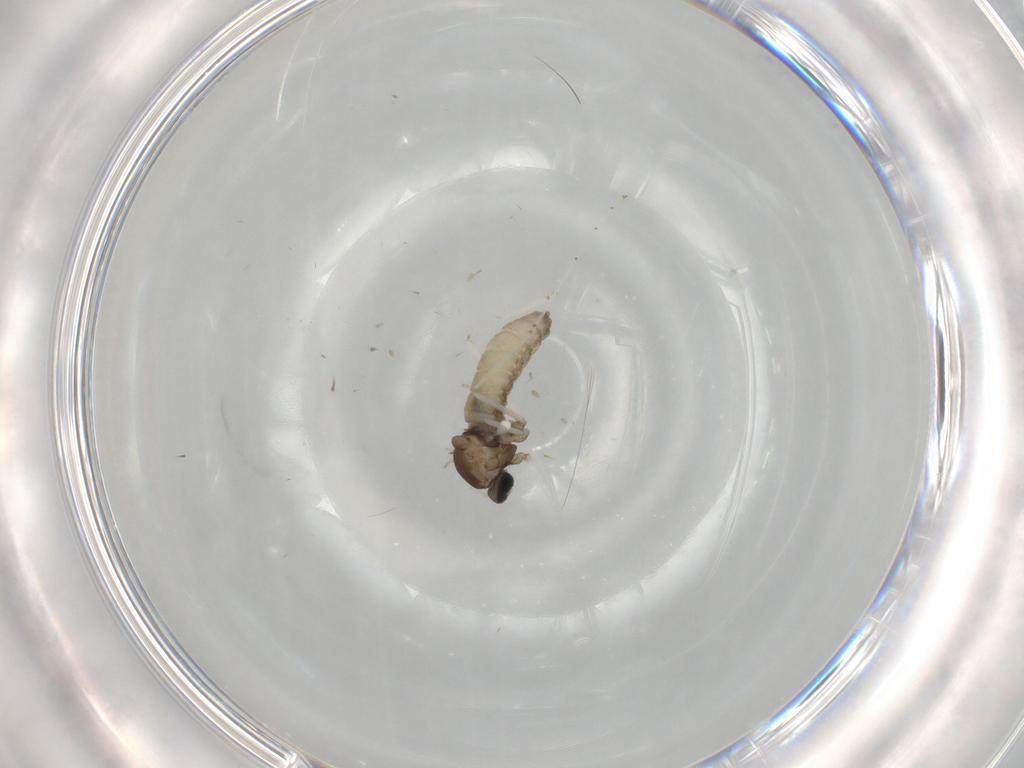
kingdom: Animalia
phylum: Arthropoda
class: Insecta
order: Diptera
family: Cecidomyiidae
